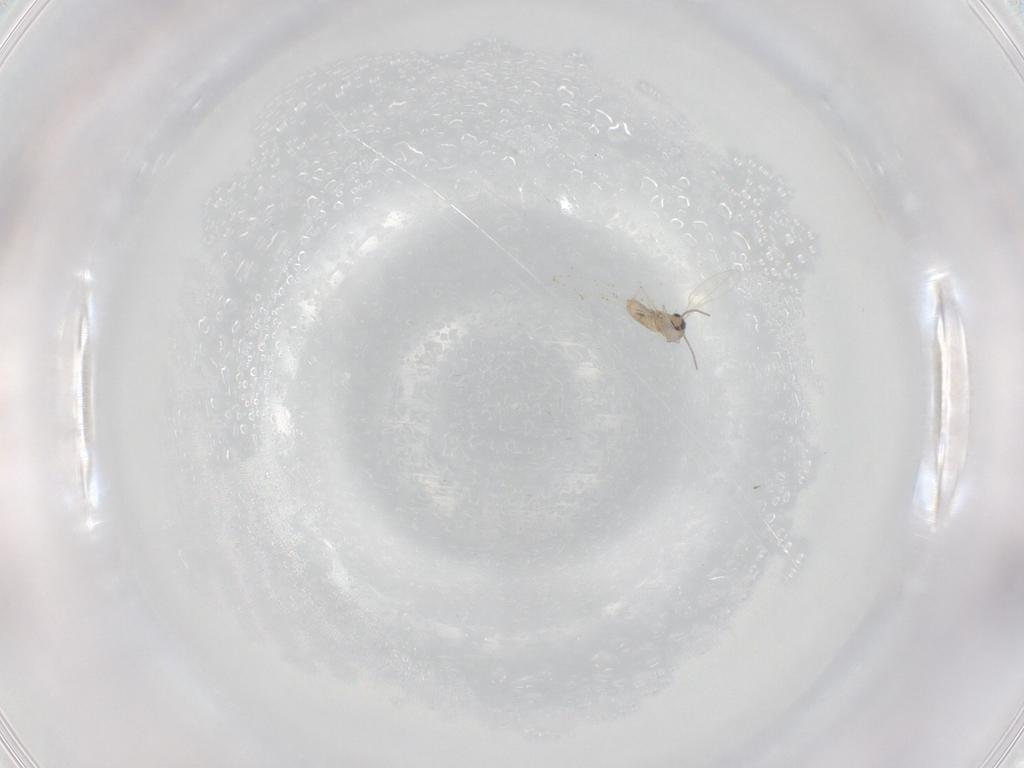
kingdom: Animalia
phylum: Arthropoda
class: Insecta
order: Diptera
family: Cecidomyiidae
